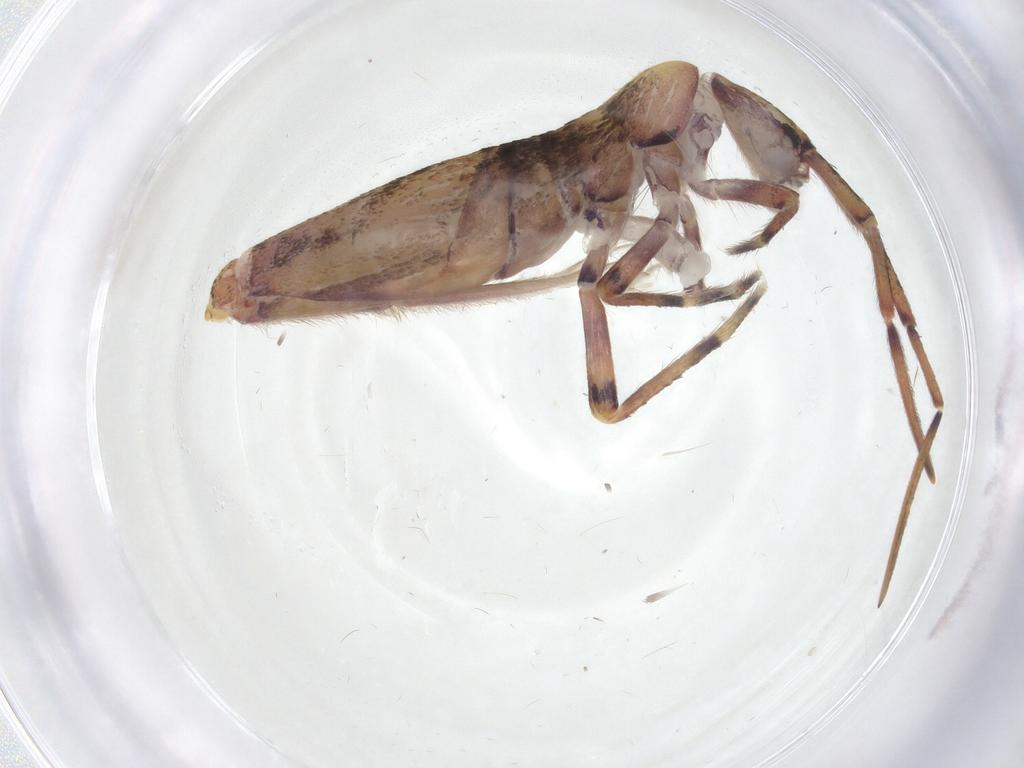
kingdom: Animalia
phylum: Arthropoda
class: Collembola
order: Entomobryomorpha
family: Entomobryidae
